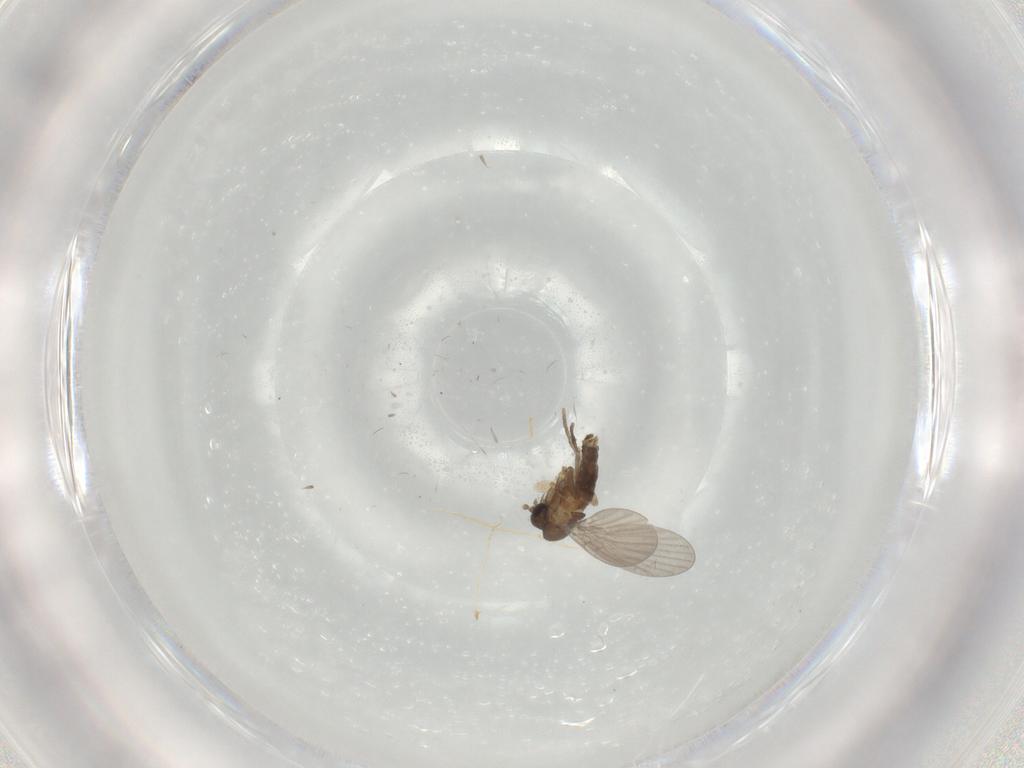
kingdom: Animalia
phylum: Arthropoda
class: Insecta
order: Diptera
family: Sciaridae
